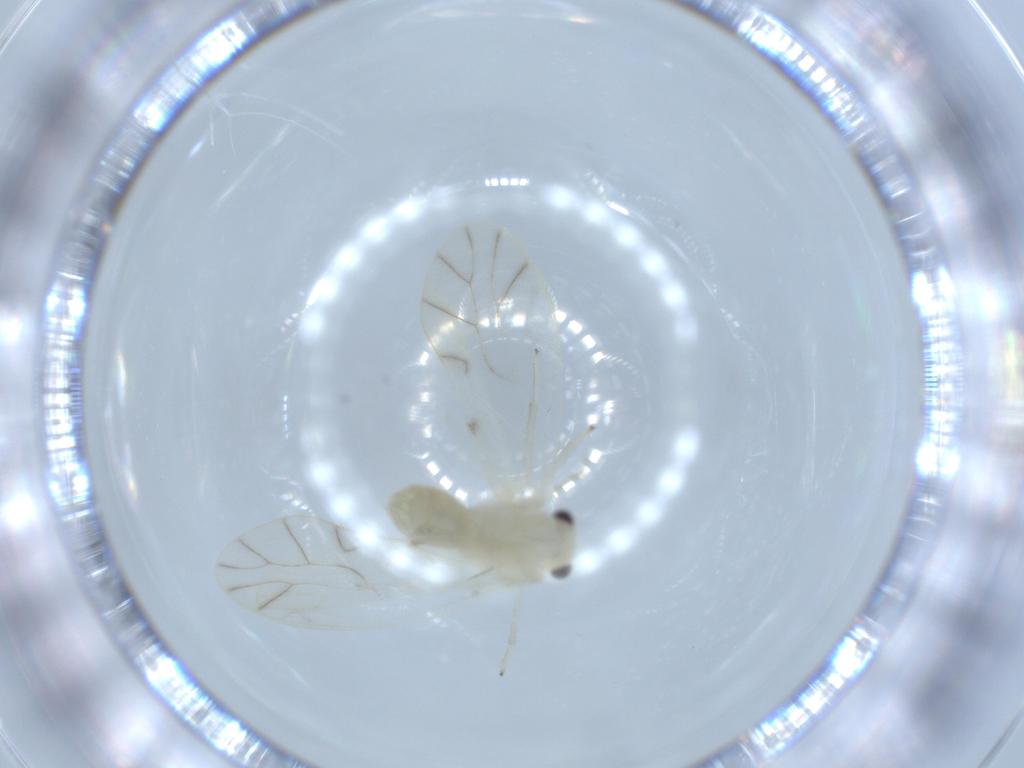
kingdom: Animalia
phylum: Arthropoda
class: Insecta
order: Psocodea
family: Caeciliusidae
